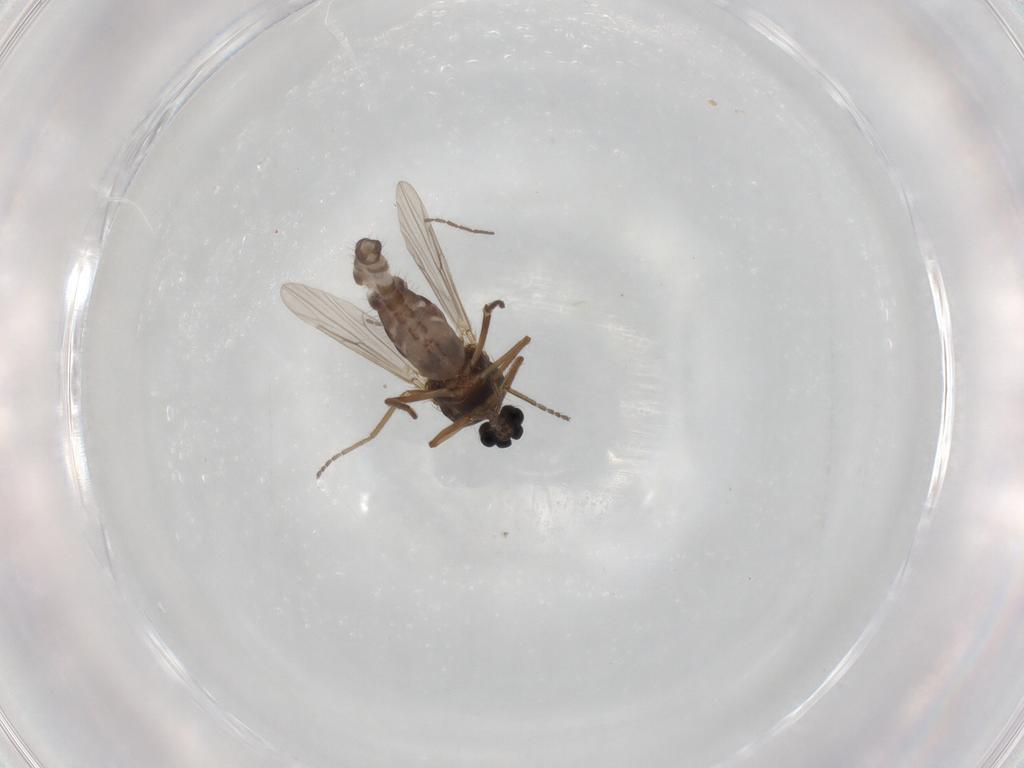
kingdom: Animalia
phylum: Arthropoda
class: Insecta
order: Diptera
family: Ceratopogonidae
